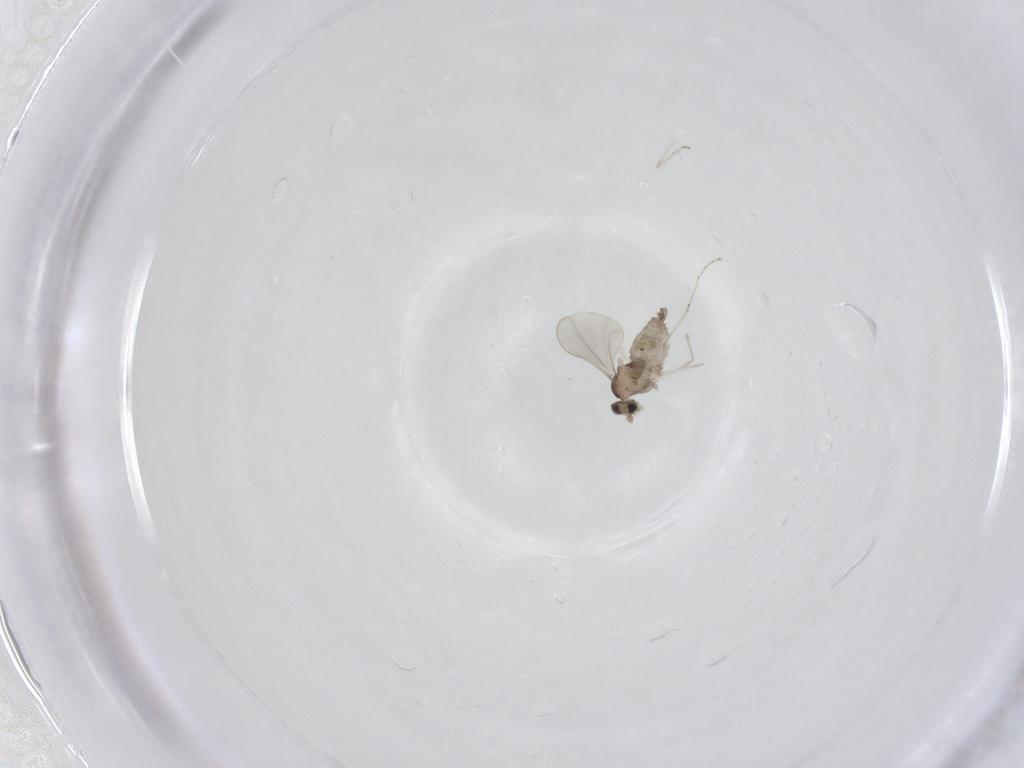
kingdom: Animalia
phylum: Arthropoda
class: Insecta
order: Diptera
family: Cecidomyiidae
